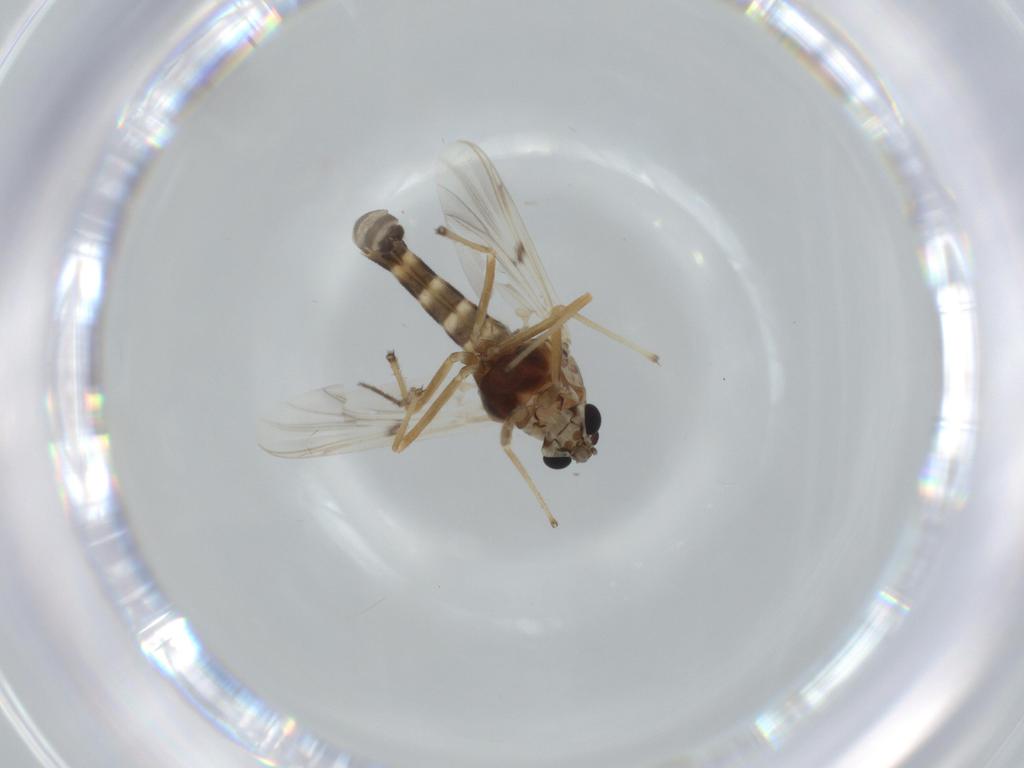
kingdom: Animalia
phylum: Arthropoda
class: Insecta
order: Diptera
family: Chironomidae
